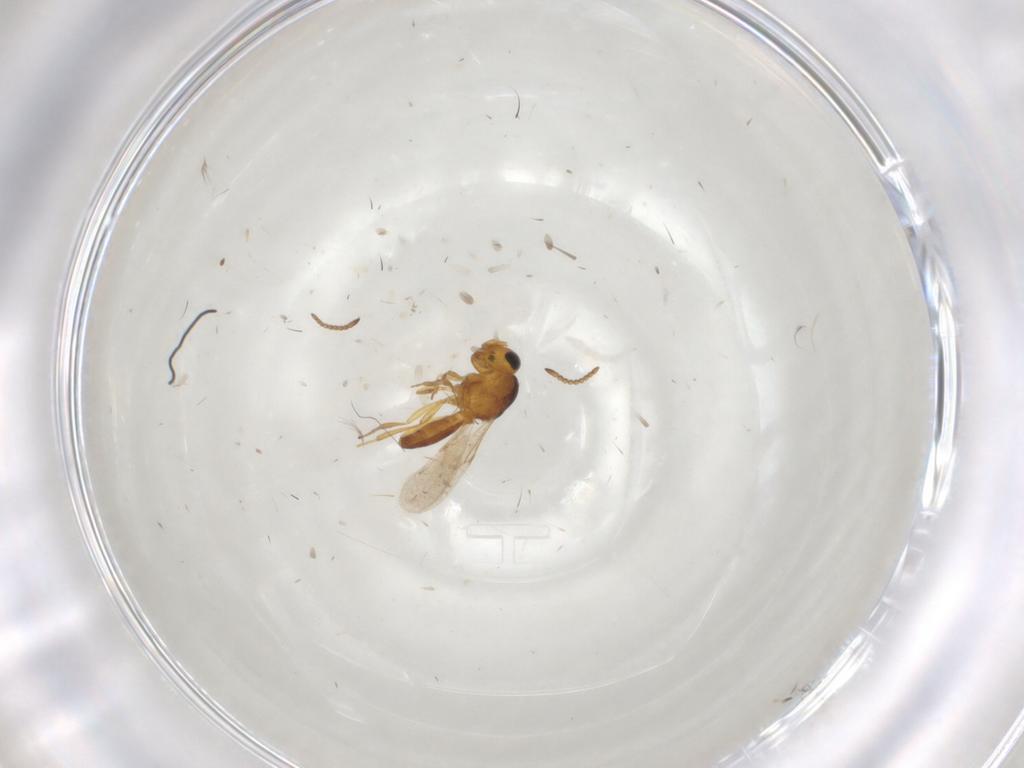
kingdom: Animalia
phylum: Arthropoda
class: Insecta
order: Hymenoptera
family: Scelionidae
